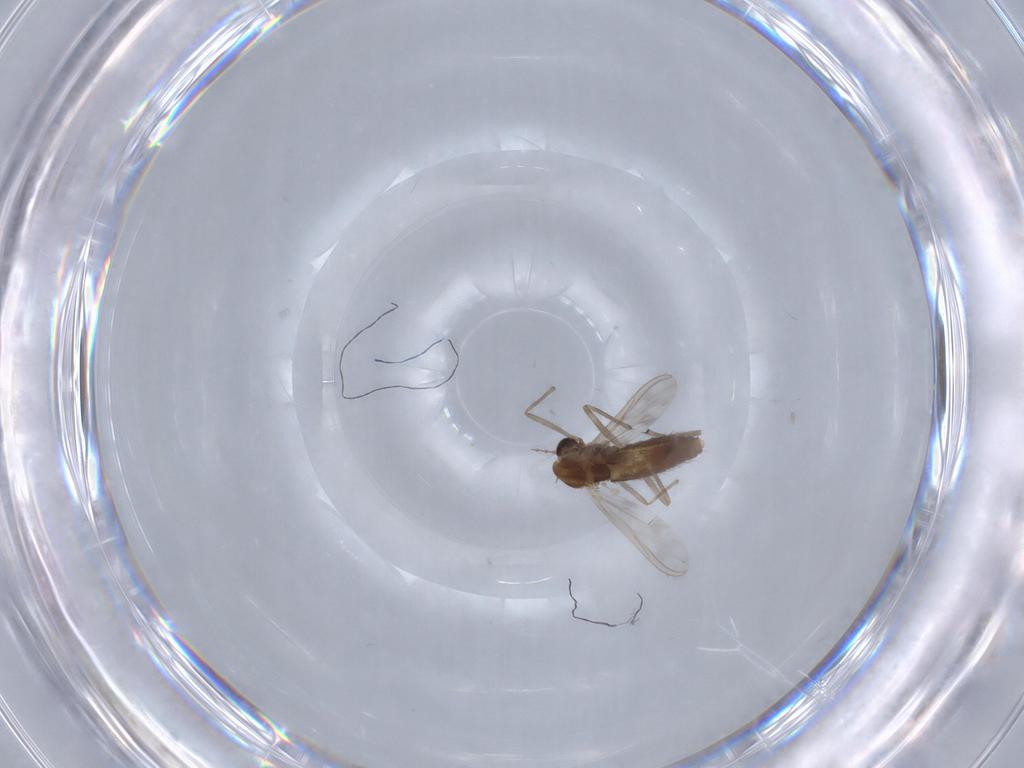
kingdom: Animalia
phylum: Arthropoda
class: Insecta
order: Diptera
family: Chironomidae
